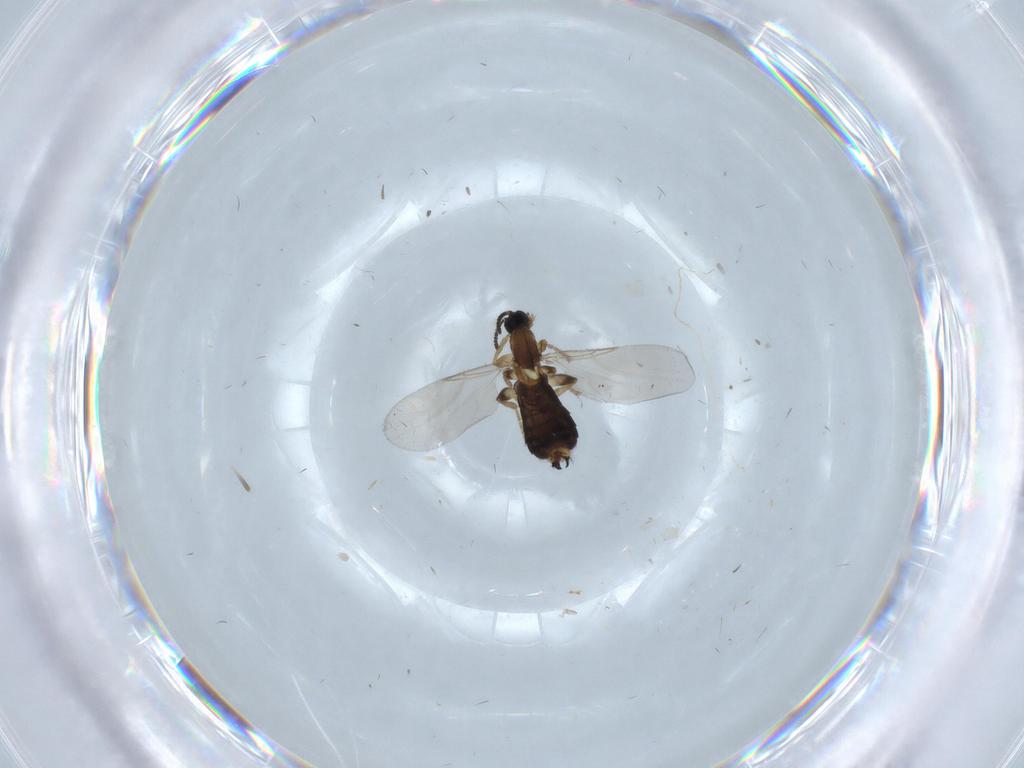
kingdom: Animalia
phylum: Arthropoda
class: Insecta
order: Diptera
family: Scatopsidae
